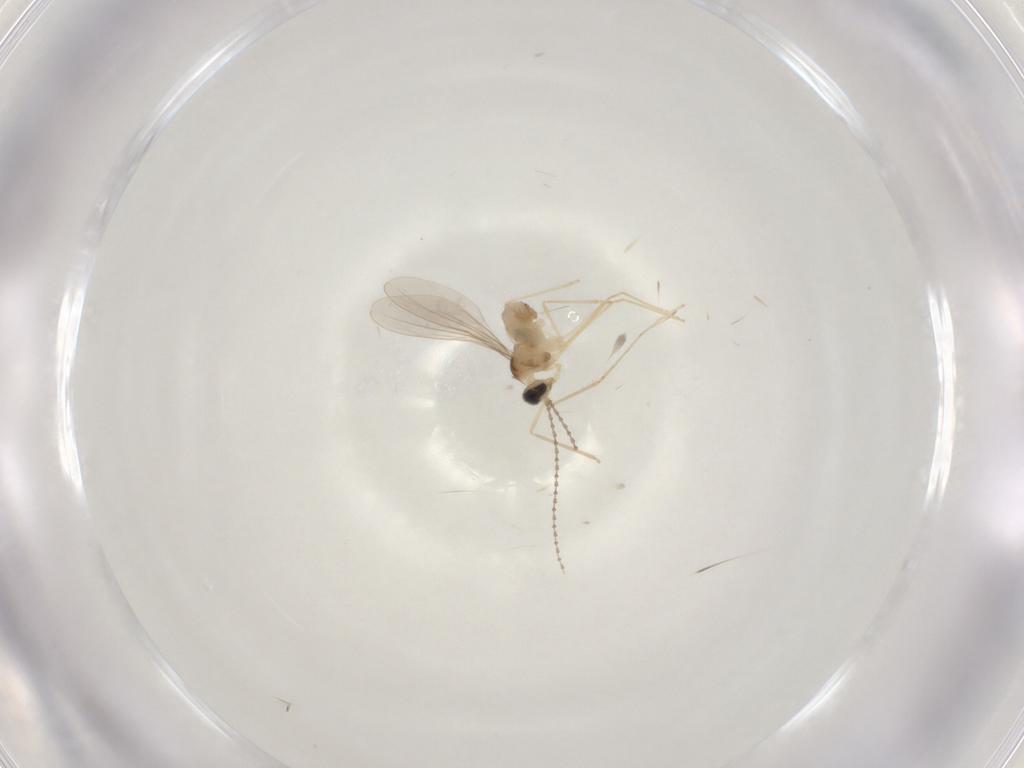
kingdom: Animalia
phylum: Arthropoda
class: Insecta
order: Diptera
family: Cecidomyiidae
